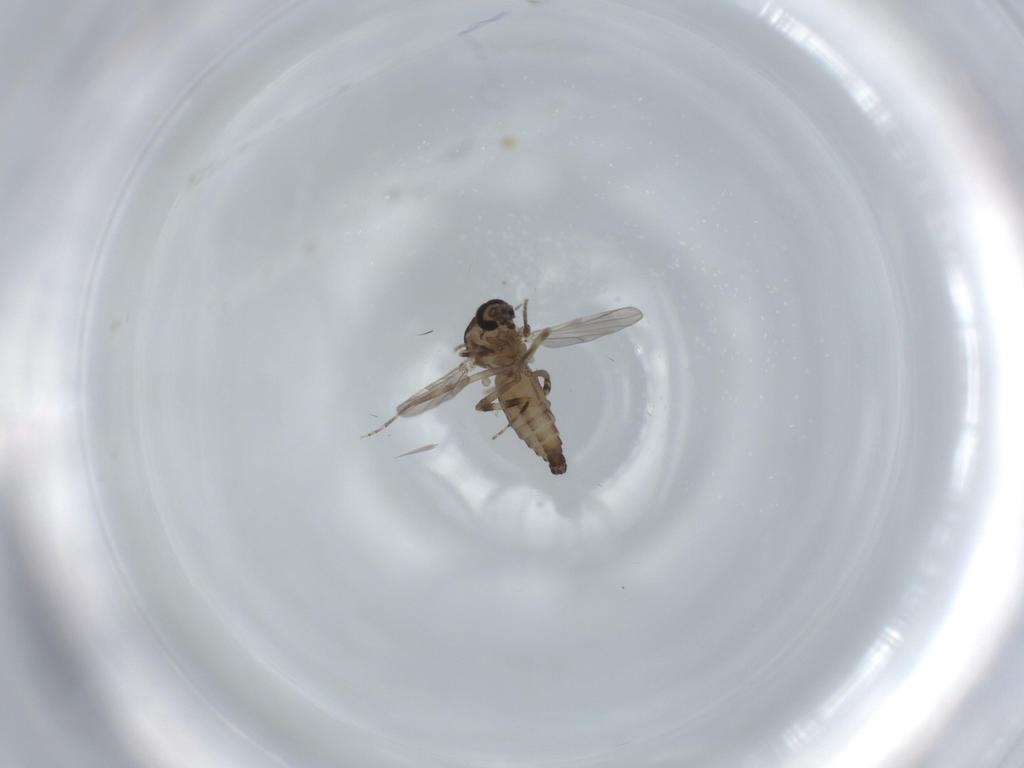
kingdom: Animalia
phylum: Arthropoda
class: Insecta
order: Diptera
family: Ceratopogonidae
